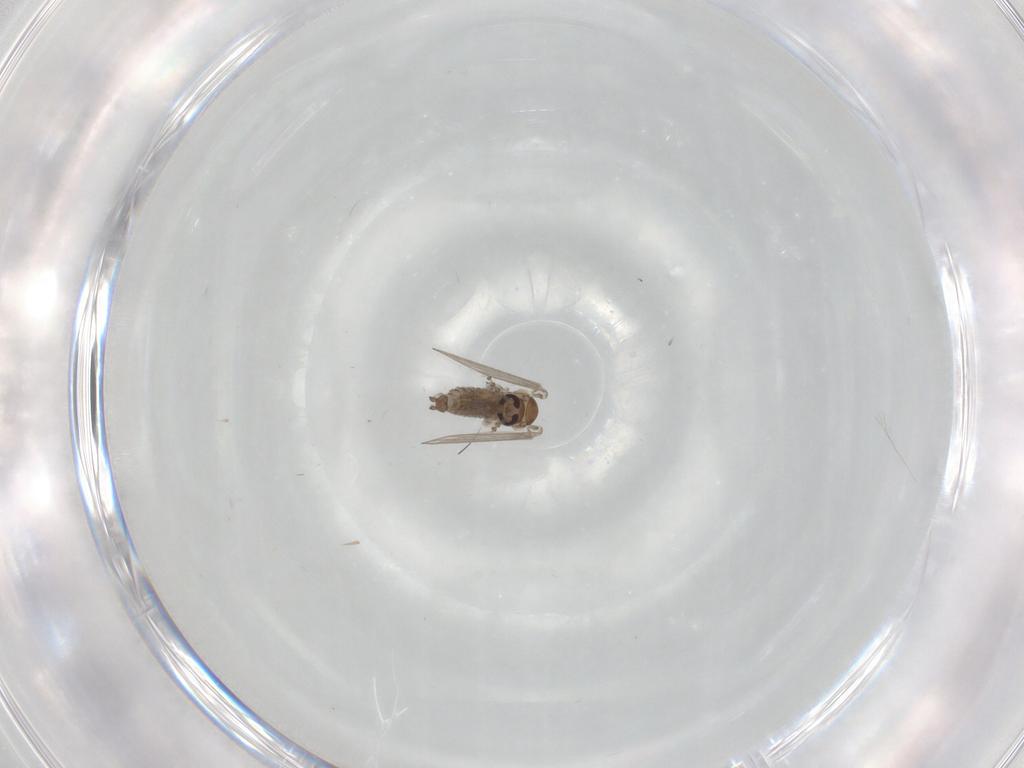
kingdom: Animalia
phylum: Arthropoda
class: Insecta
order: Diptera
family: Psychodidae
